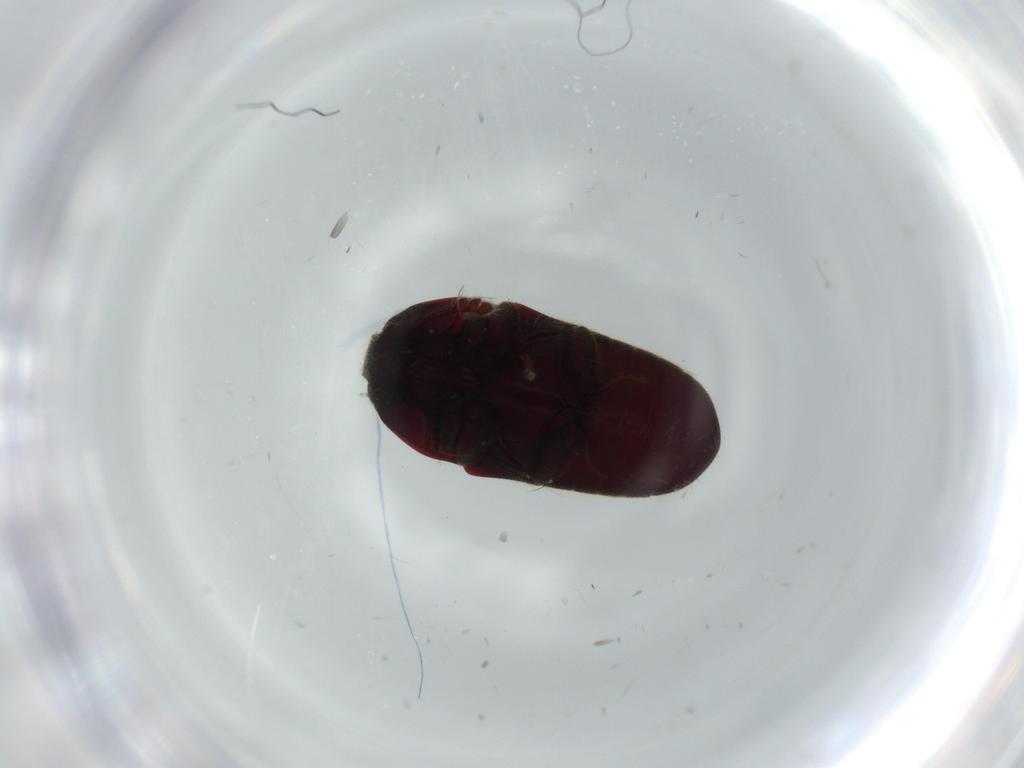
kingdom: Animalia
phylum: Arthropoda
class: Insecta
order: Coleoptera
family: Throscidae
